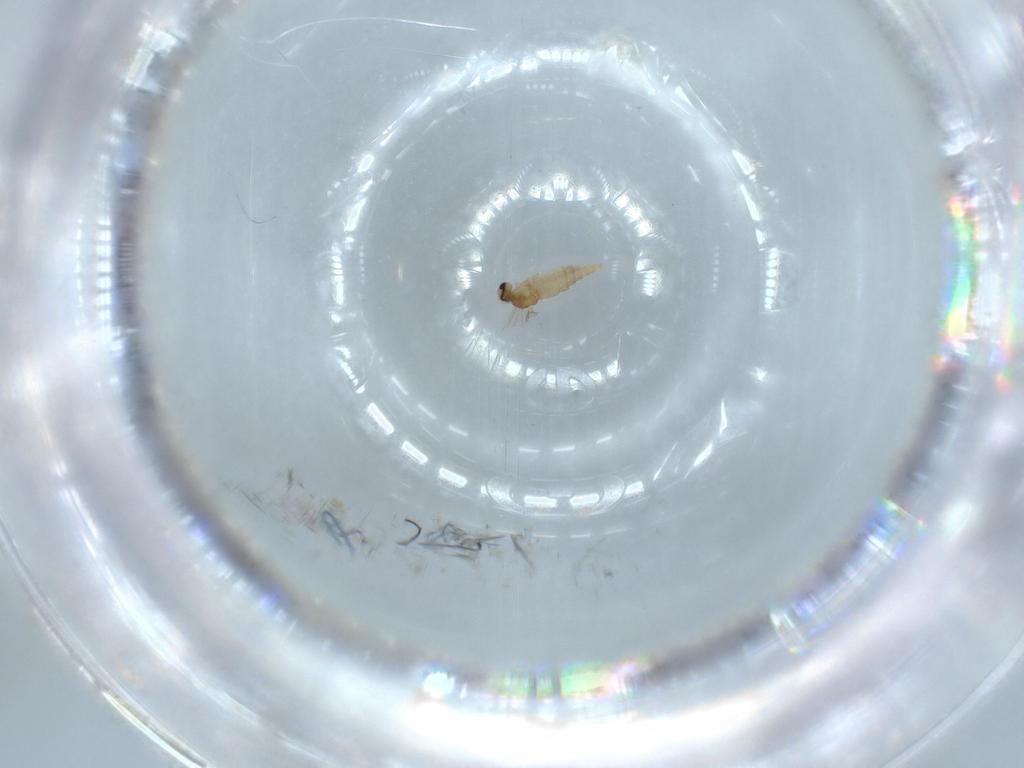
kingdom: Animalia
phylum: Arthropoda
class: Insecta
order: Diptera
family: Cecidomyiidae
